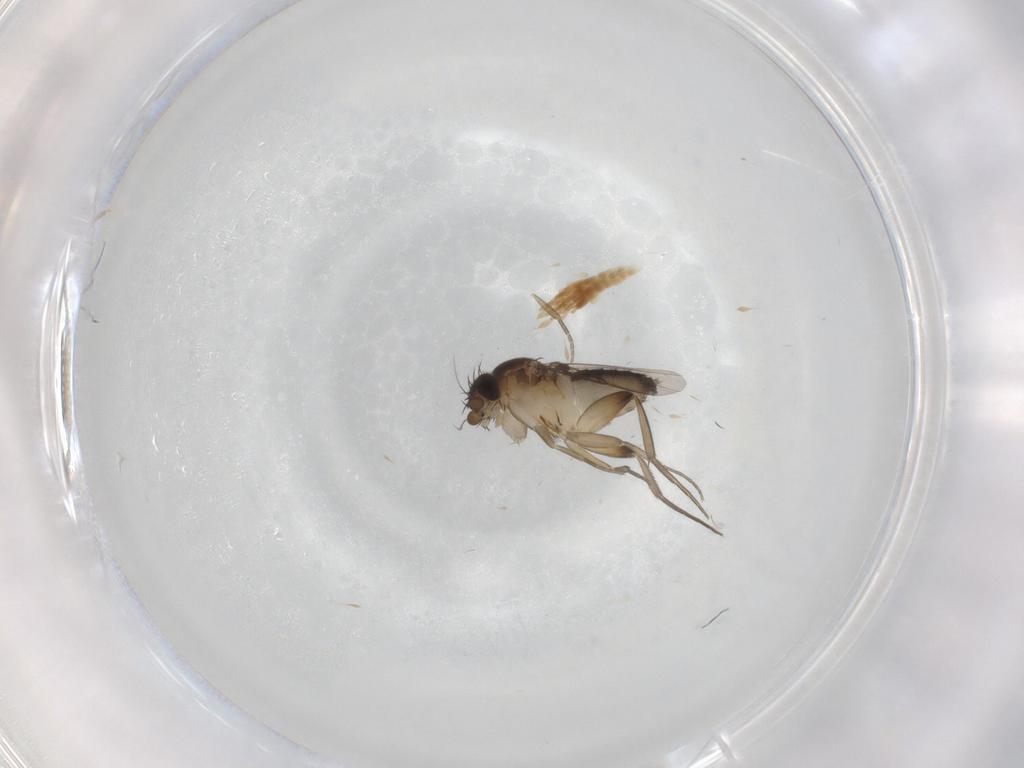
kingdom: Animalia
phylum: Arthropoda
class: Insecta
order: Diptera
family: Phoridae
